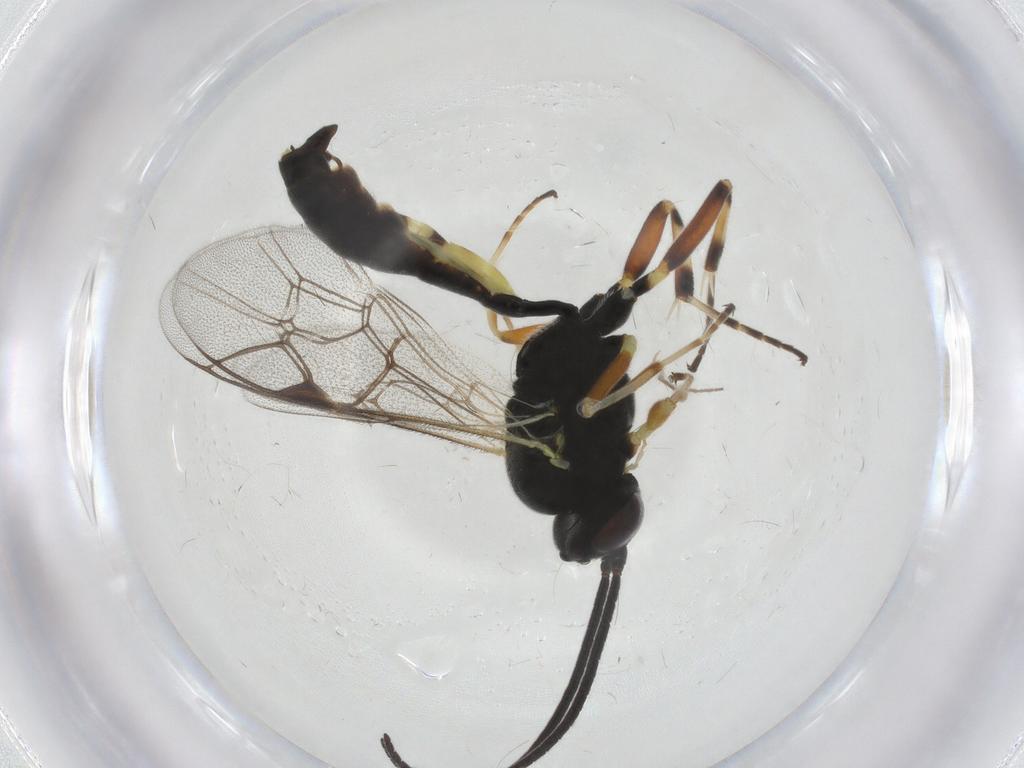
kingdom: Animalia
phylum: Arthropoda
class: Insecta
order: Hymenoptera
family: Ichneumonidae
